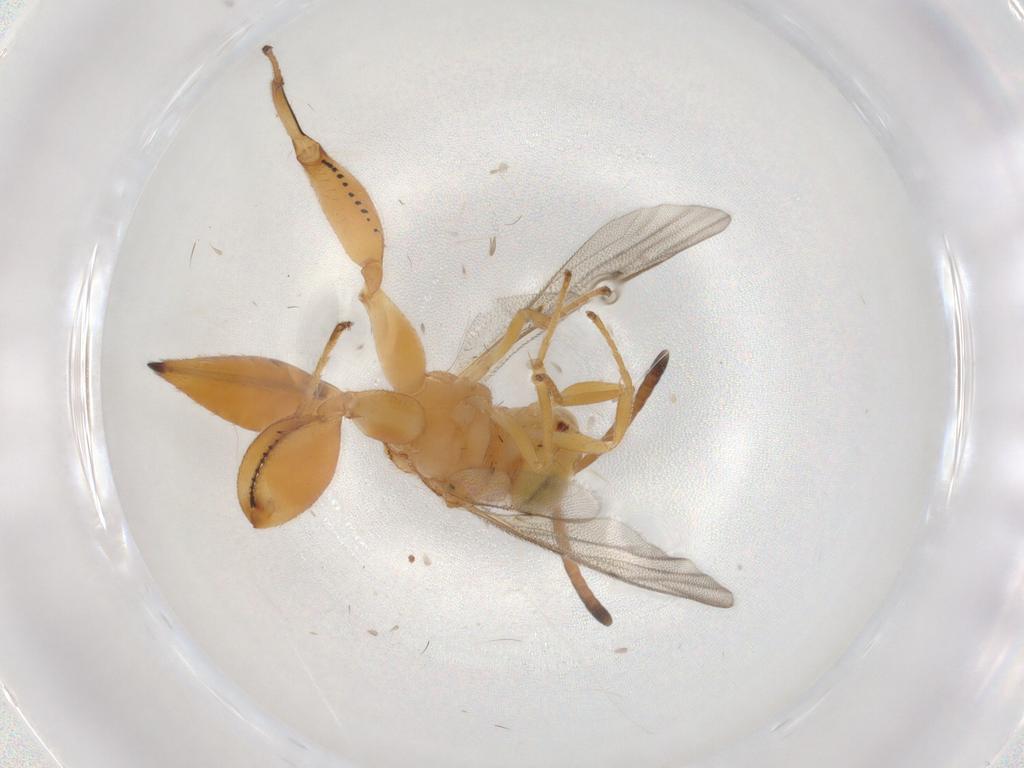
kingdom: Animalia
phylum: Arthropoda
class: Insecta
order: Hymenoptera
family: Chalcididae
